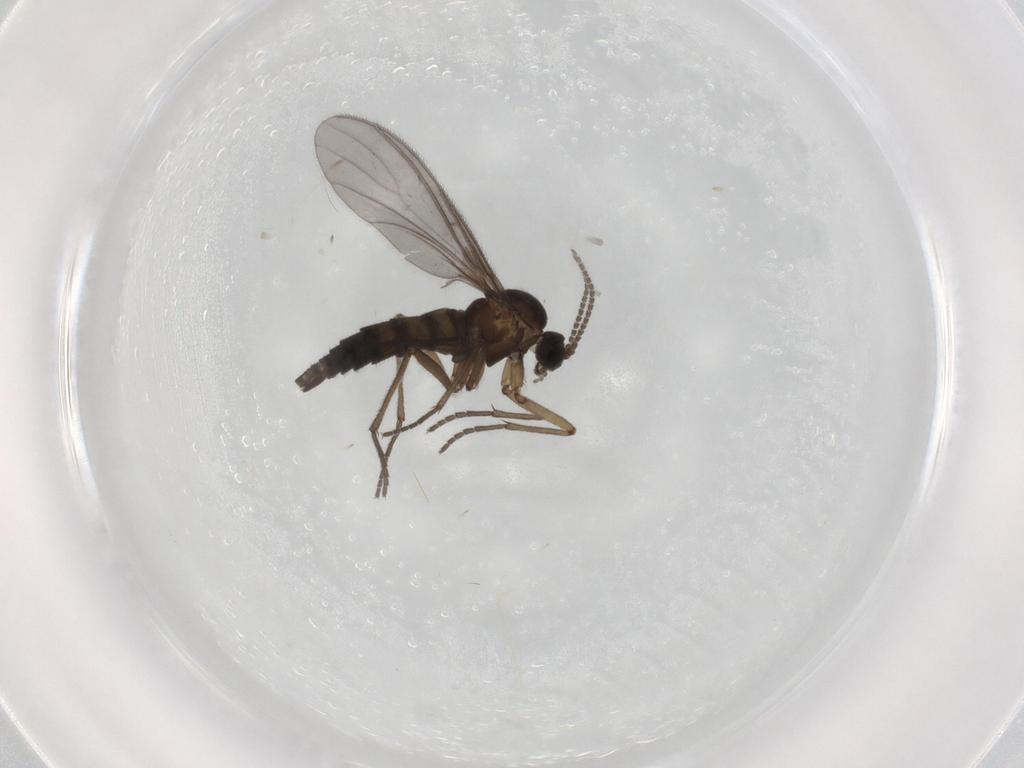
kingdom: Animalia
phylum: Arthropoda
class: Insecta
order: Diptera
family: Sciaridae
